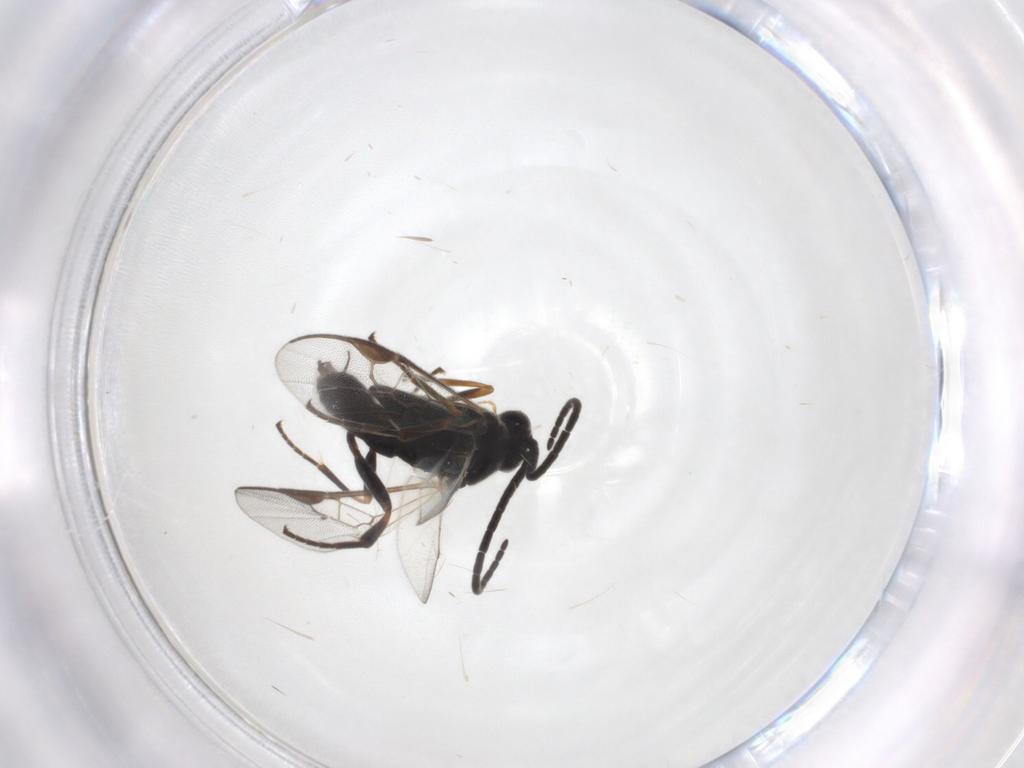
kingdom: Animalia
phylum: Arthropoda
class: Insecta
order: Hymenoptera
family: Braconidae
